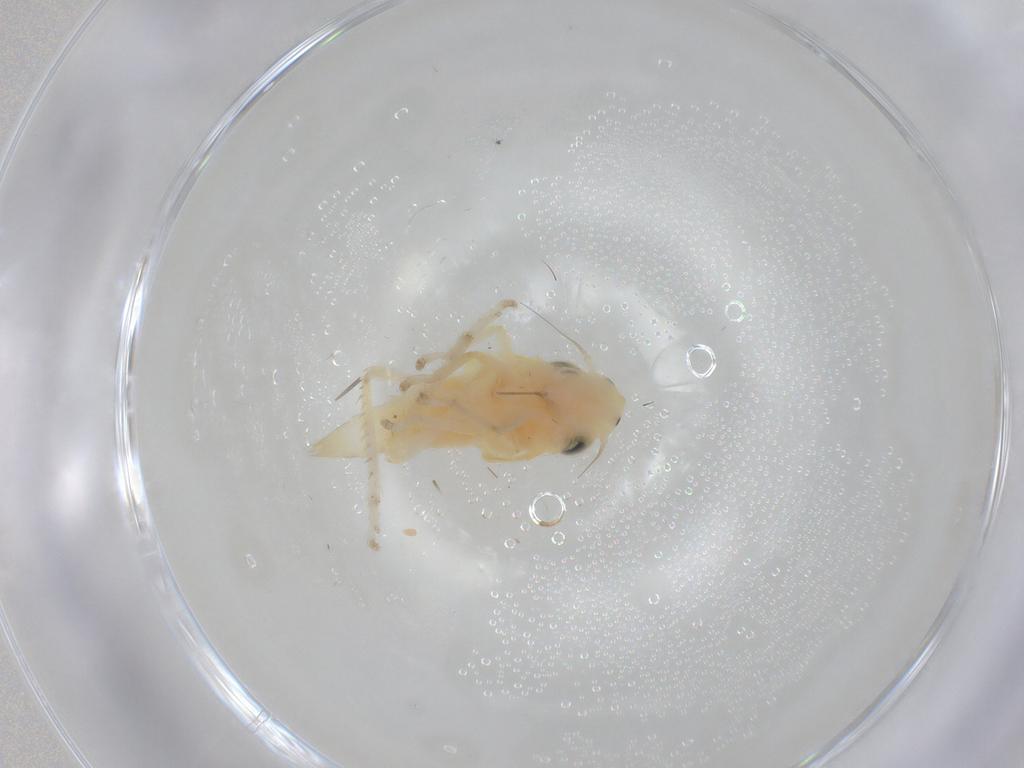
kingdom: Animalia
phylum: Arthropoda
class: Insecta
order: Hemiptera
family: Cicadellidae
